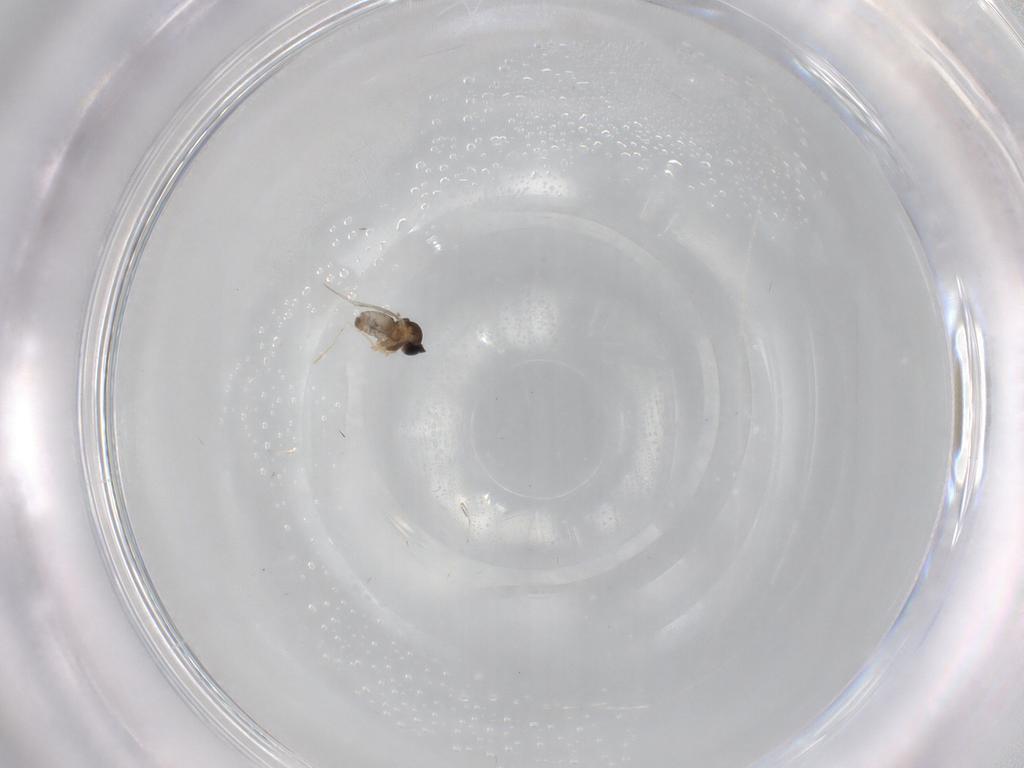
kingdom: Animalia
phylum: Arthropoda
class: Insecta
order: Diptera
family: Cecidomyiidae
